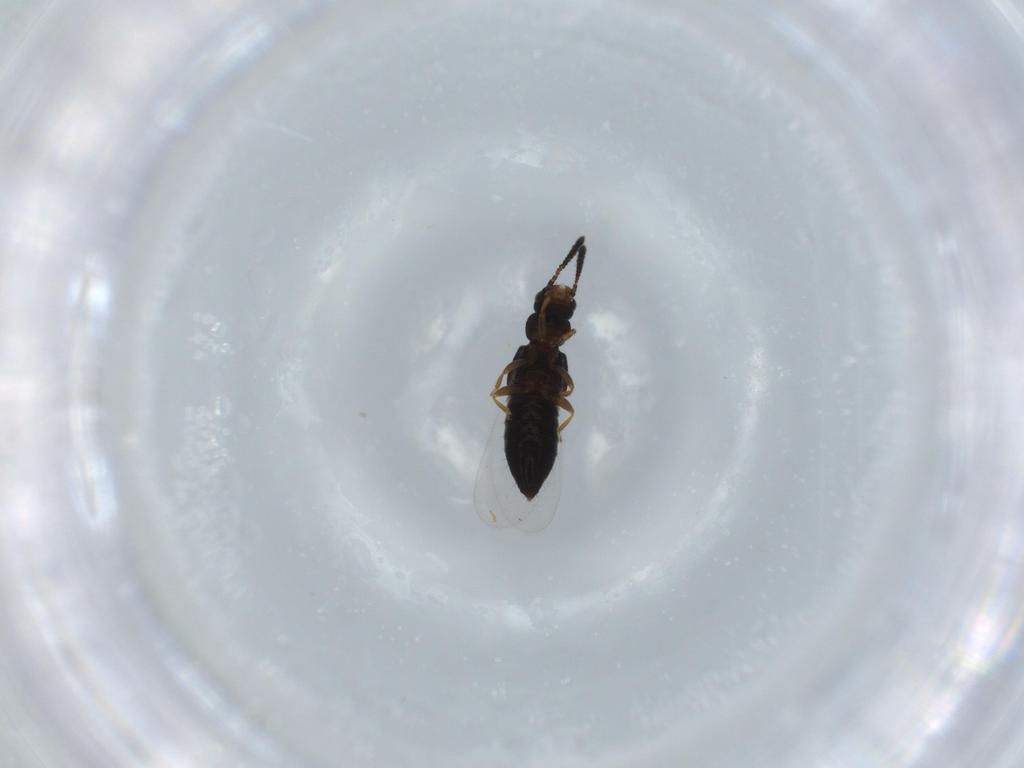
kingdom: Animalia
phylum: Arthropoda
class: Insecta
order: Coleoptera
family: Staphylinidae
